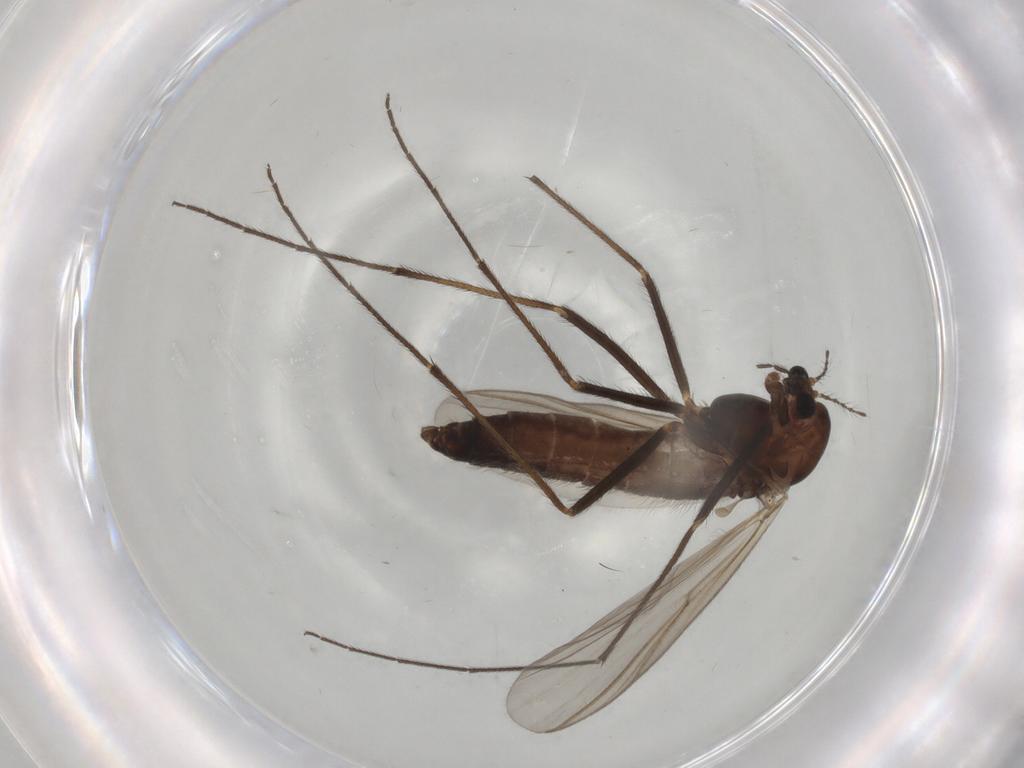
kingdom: Animalia
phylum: Arthropoda
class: Insecta
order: Diptera
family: Chironomidae
